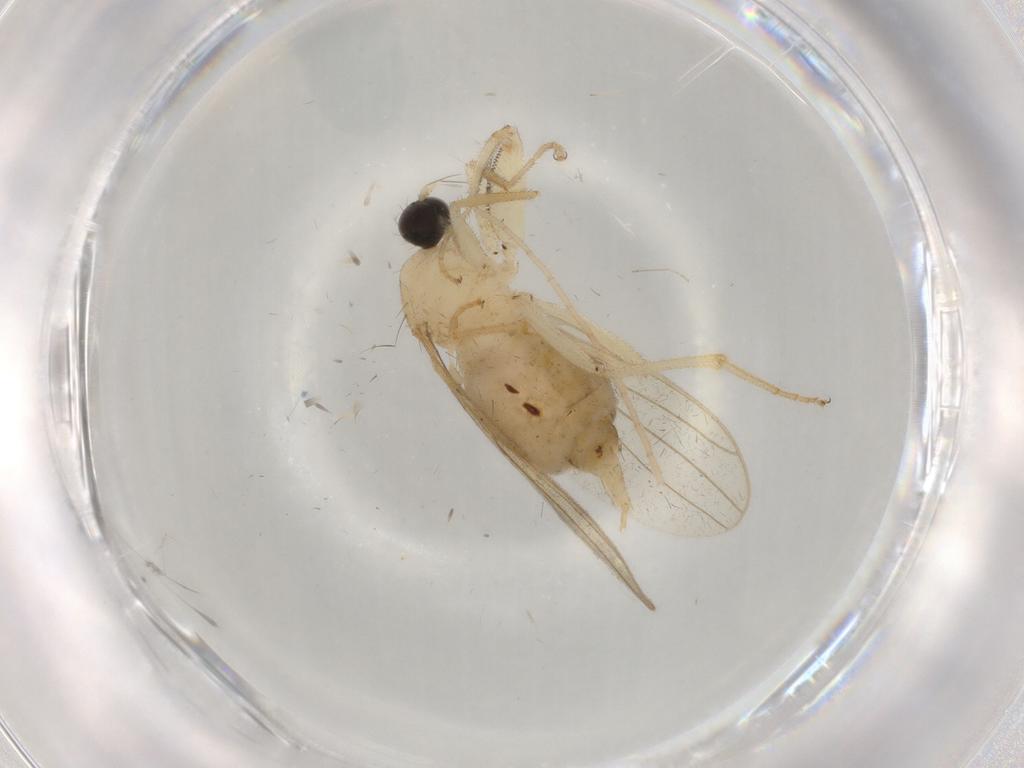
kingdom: Animalia
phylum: Arthropoda
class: Insecta
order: Diptera
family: Hybotidae
